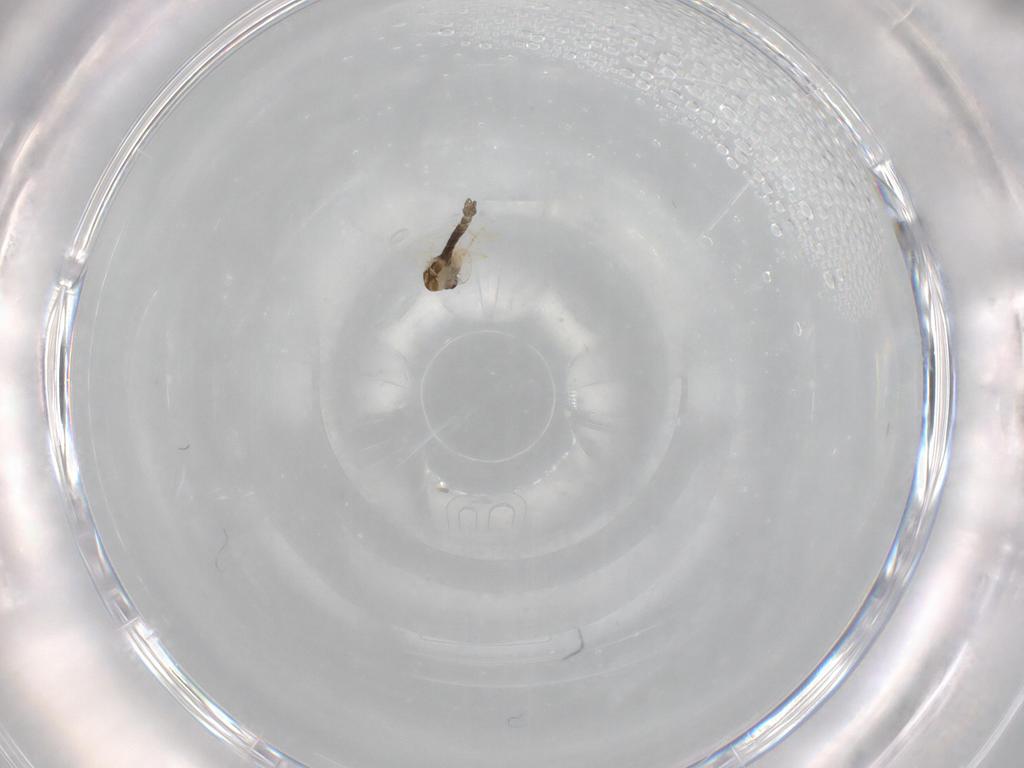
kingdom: Animalia
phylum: Arthropoda
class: Insecta
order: Diptera
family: Chironomidae
